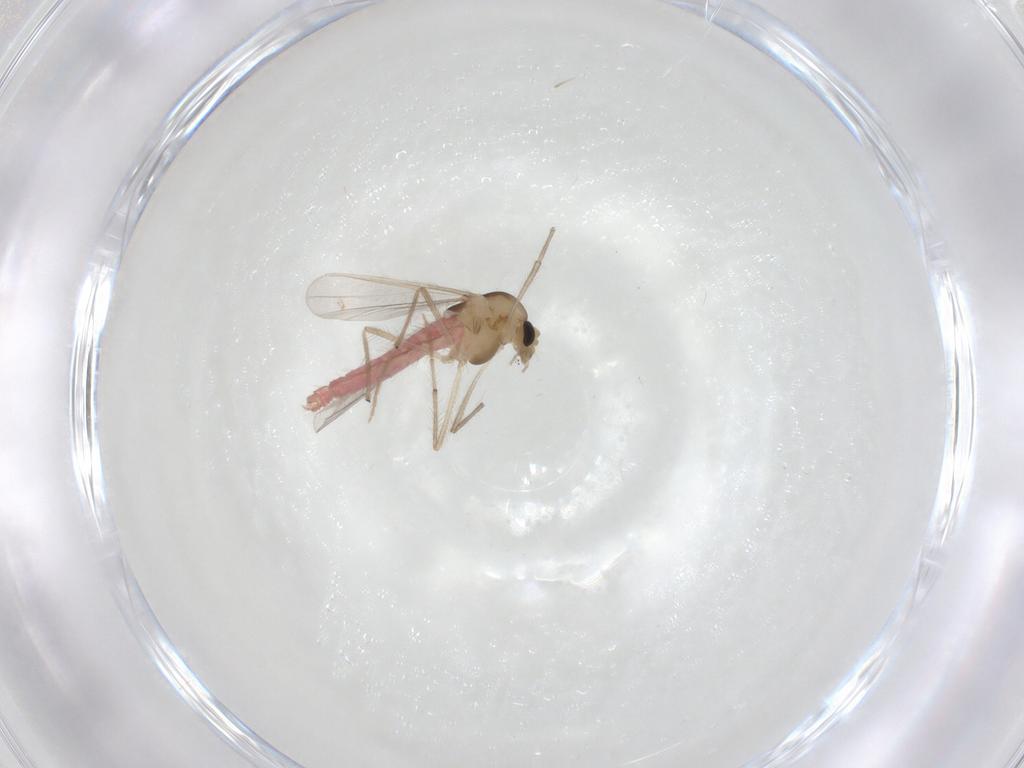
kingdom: Animalia
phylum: Arthropoda
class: Insecta
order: Diptera
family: Chironomidae
